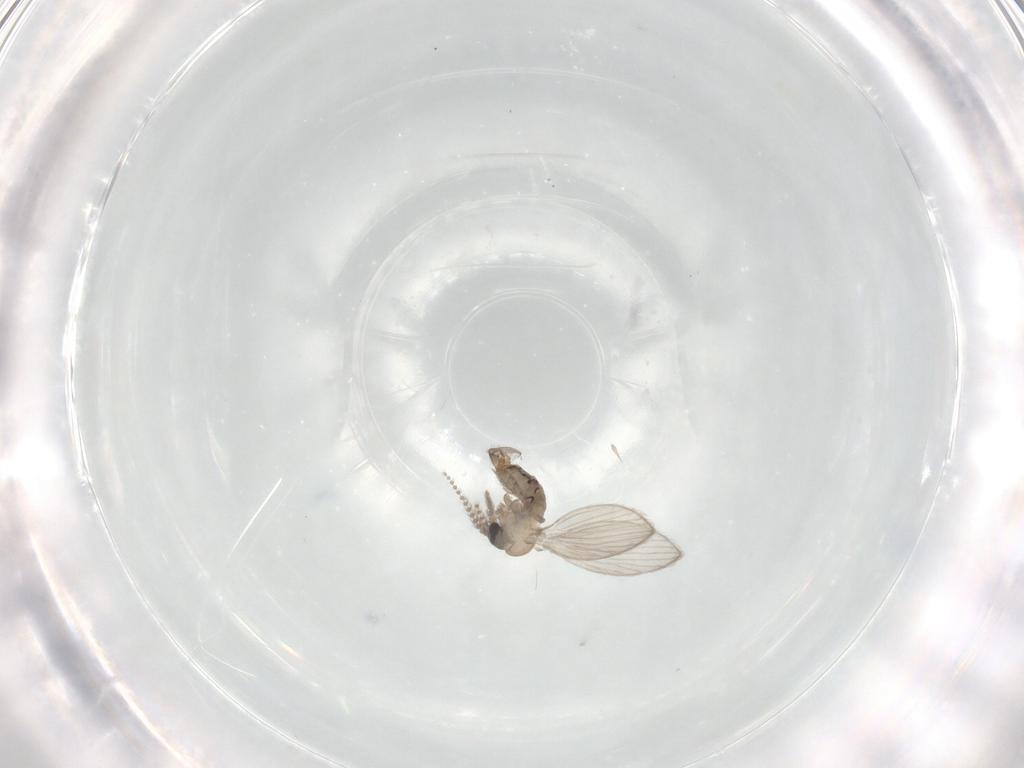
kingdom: Animalia
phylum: Arthropoda
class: Insecta
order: Diptera
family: Psychodidae
